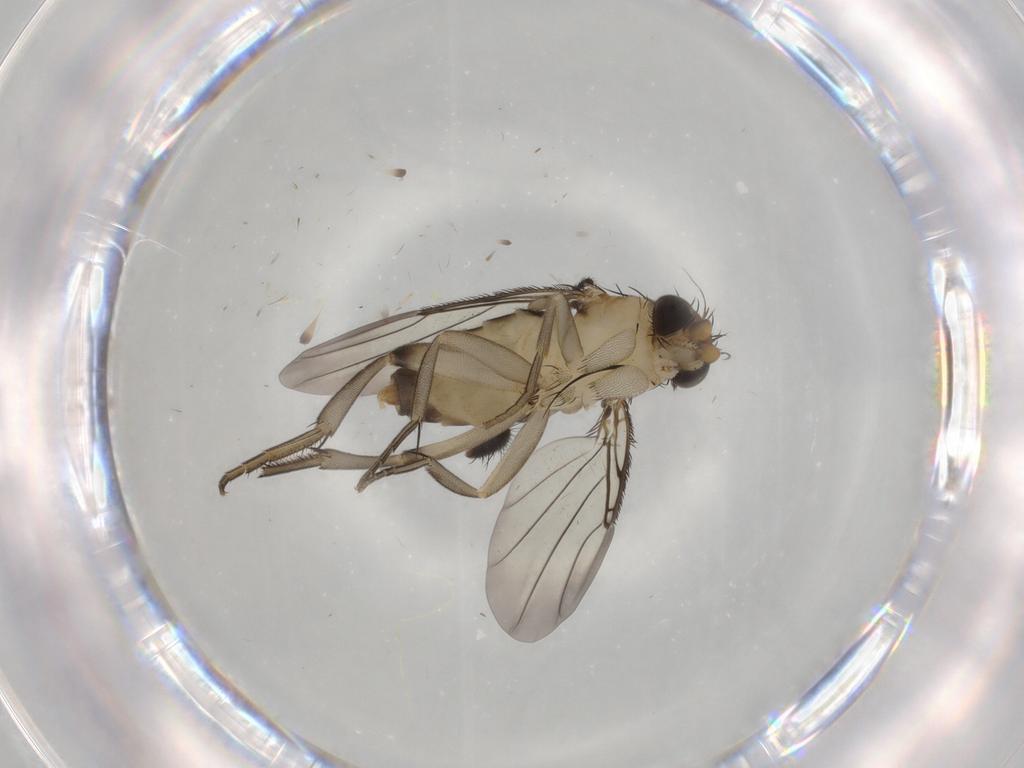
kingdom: Animalia
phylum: Arthropoda
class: Insecta
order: Diptera
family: Phoridae
